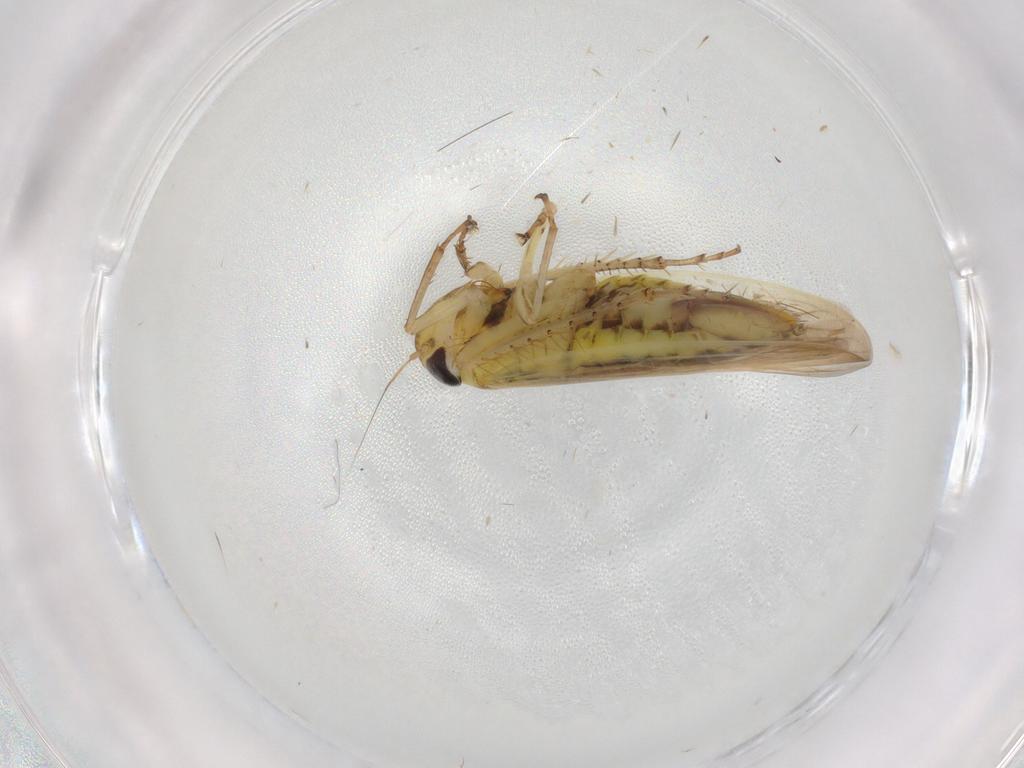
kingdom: Animalia
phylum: Arthropoda
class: Insecta
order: Hemiptera
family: Cicadellidae
